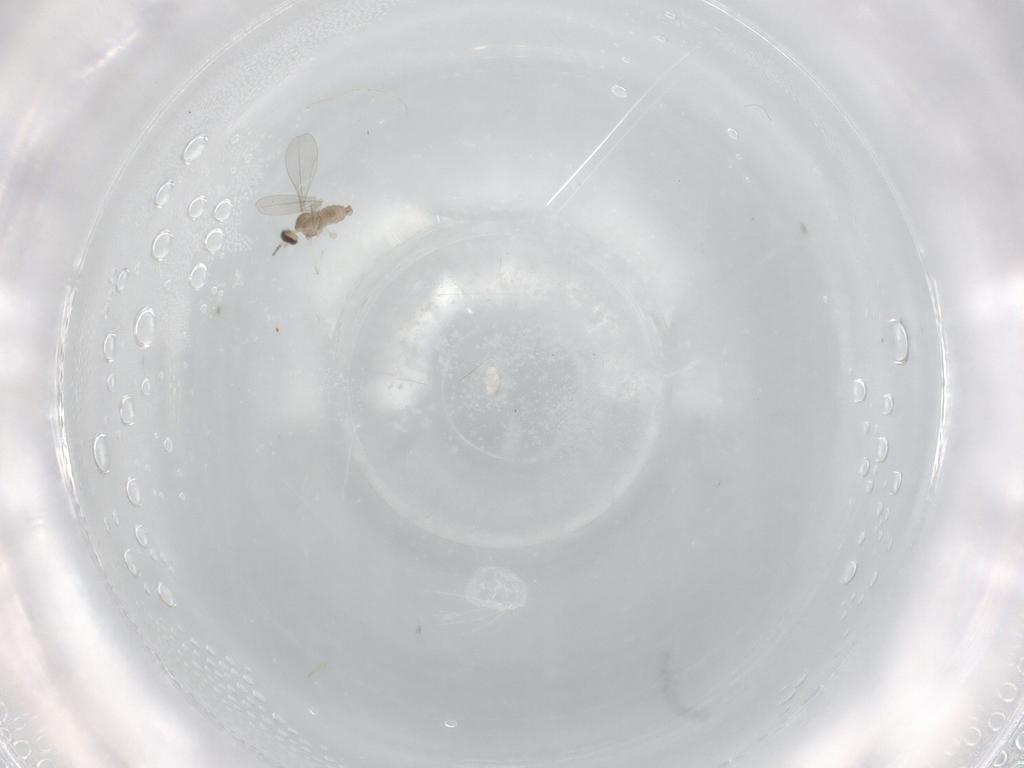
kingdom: Animalia
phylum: Arthropoda
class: Insecta
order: Diptera
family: Cecidomyiidae
